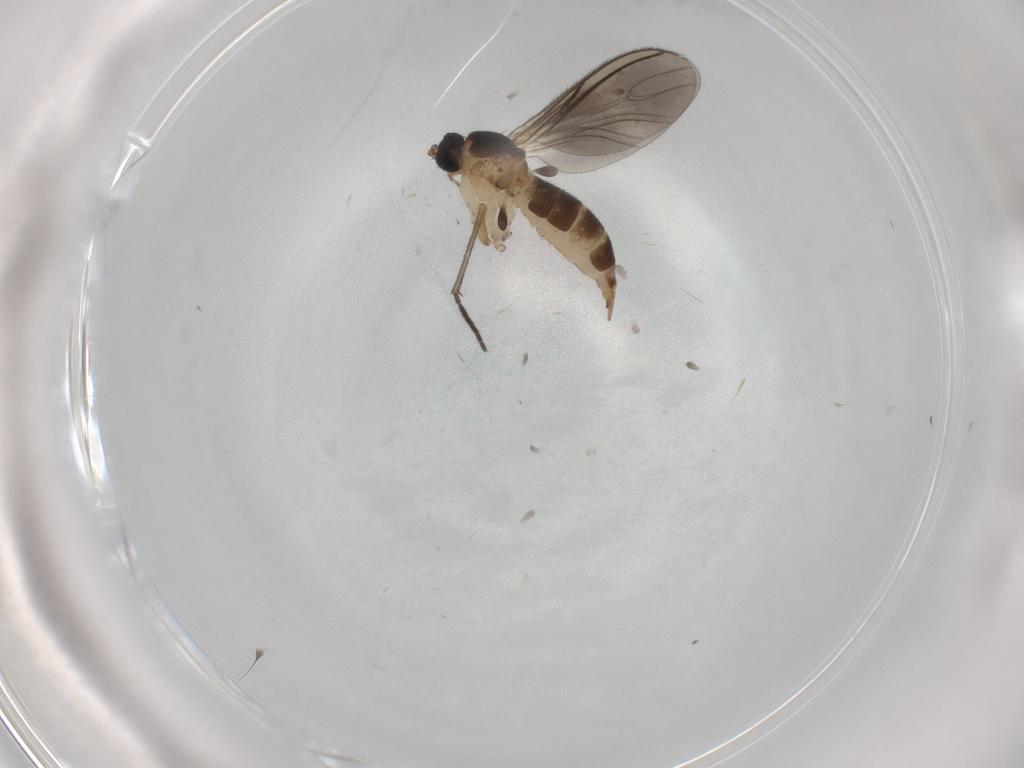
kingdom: Animalia
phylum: Arthropoda
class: Insecta
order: Diptera
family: Sciaridae
